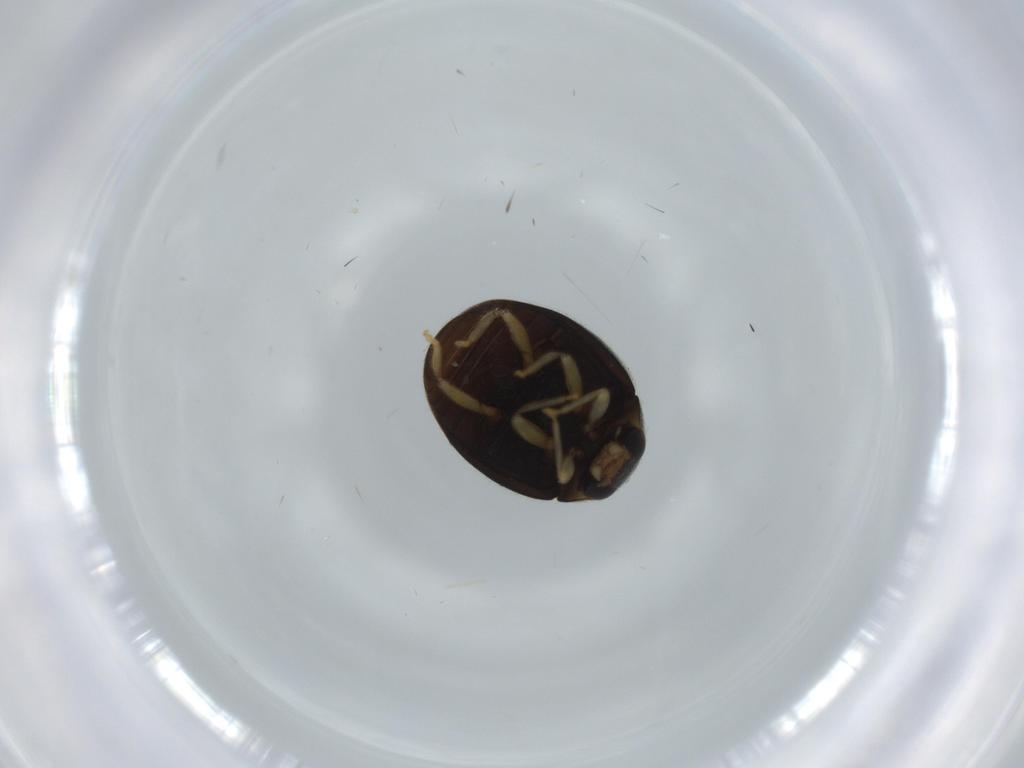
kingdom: Animalia
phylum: Arthropoda
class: Insecta
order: Coleoptera
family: Coccinellidae
